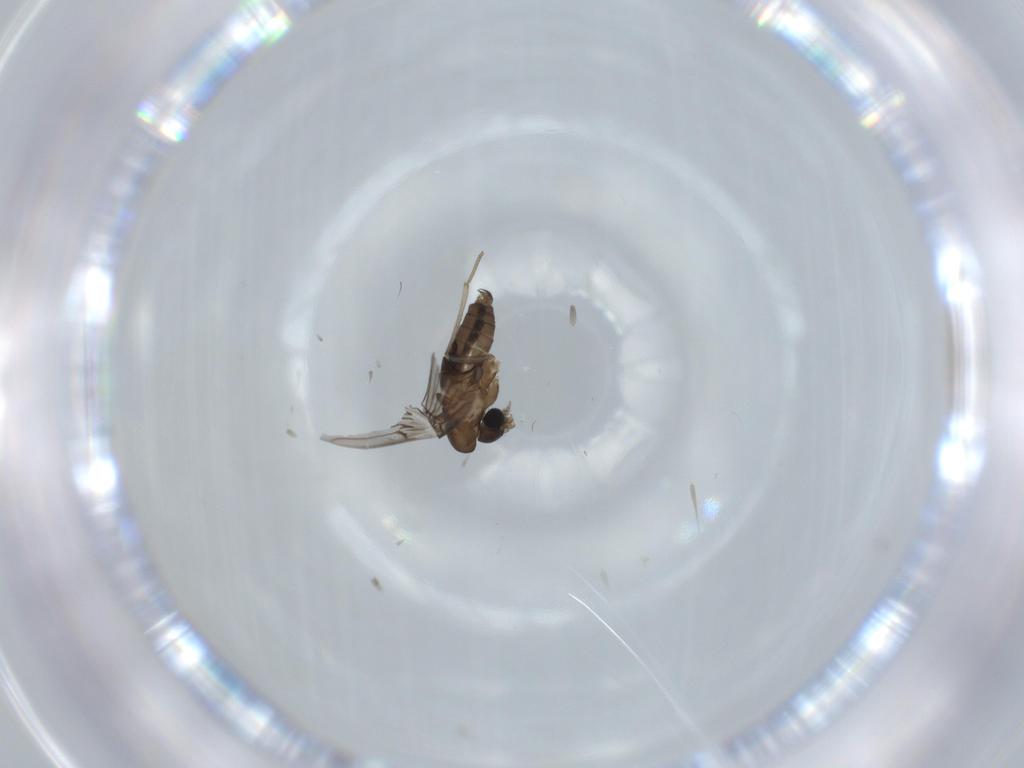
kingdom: Animalia
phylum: Arthropoda
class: Insecta
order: Diptera
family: Psychodidae
